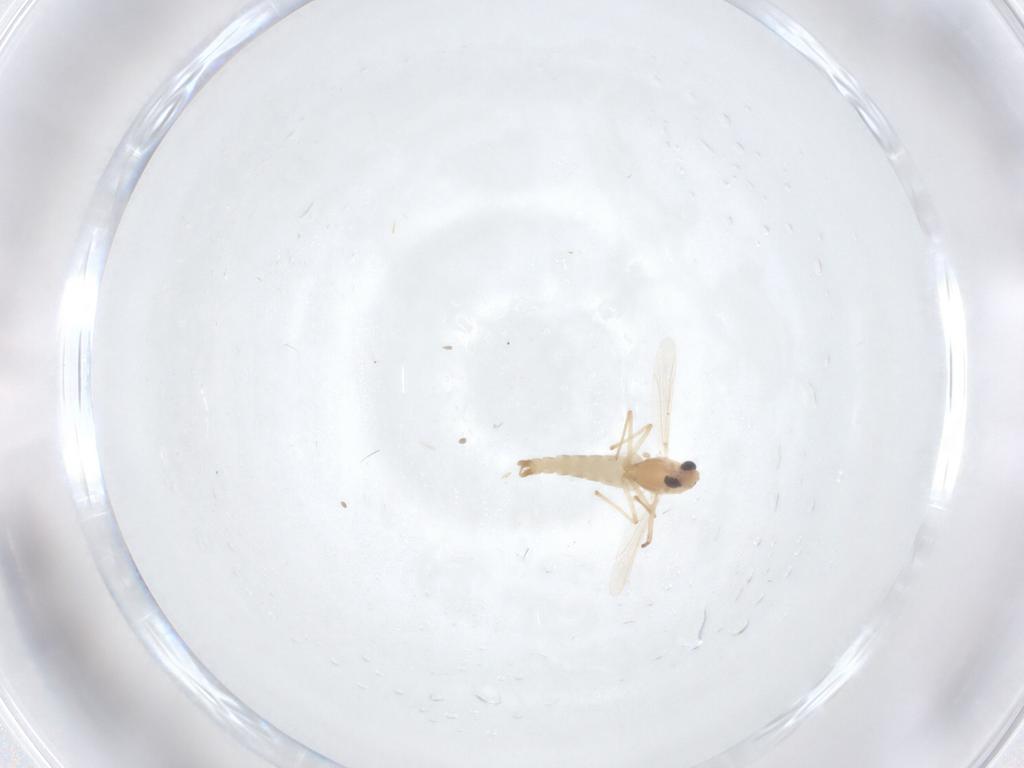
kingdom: Animalia
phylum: Arthropoda
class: Insecta
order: Diptera
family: Chironomidae
